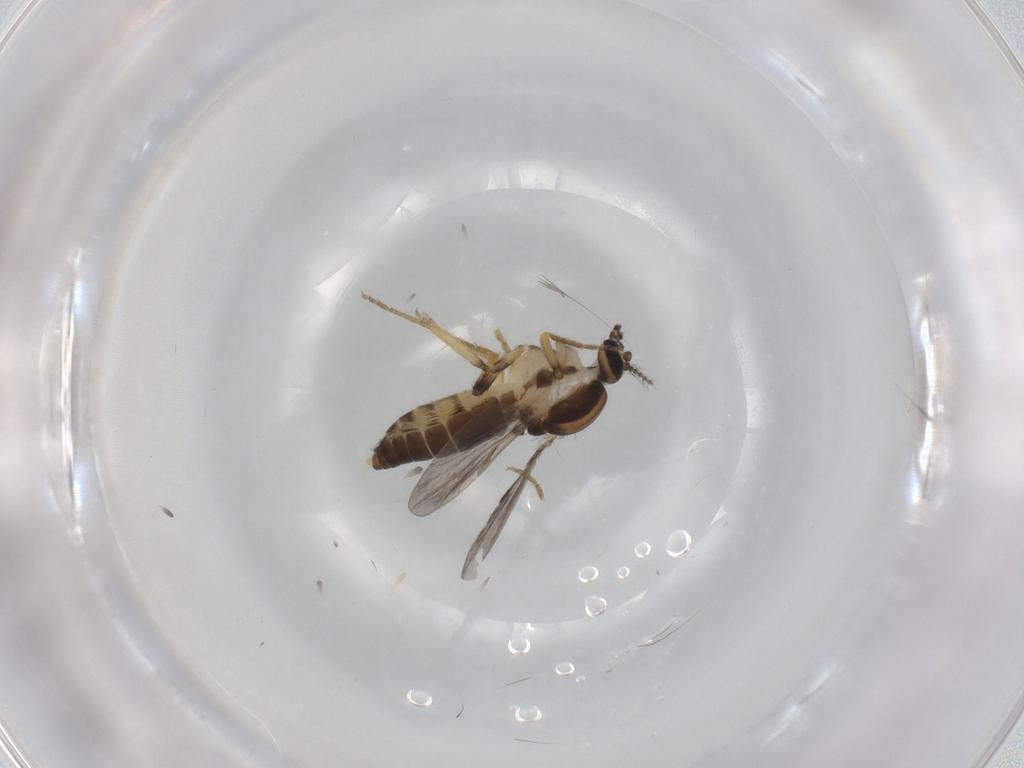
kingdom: Animalia
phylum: Arthropoda
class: Insecta
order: Diptera
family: Ceratopogonidae
